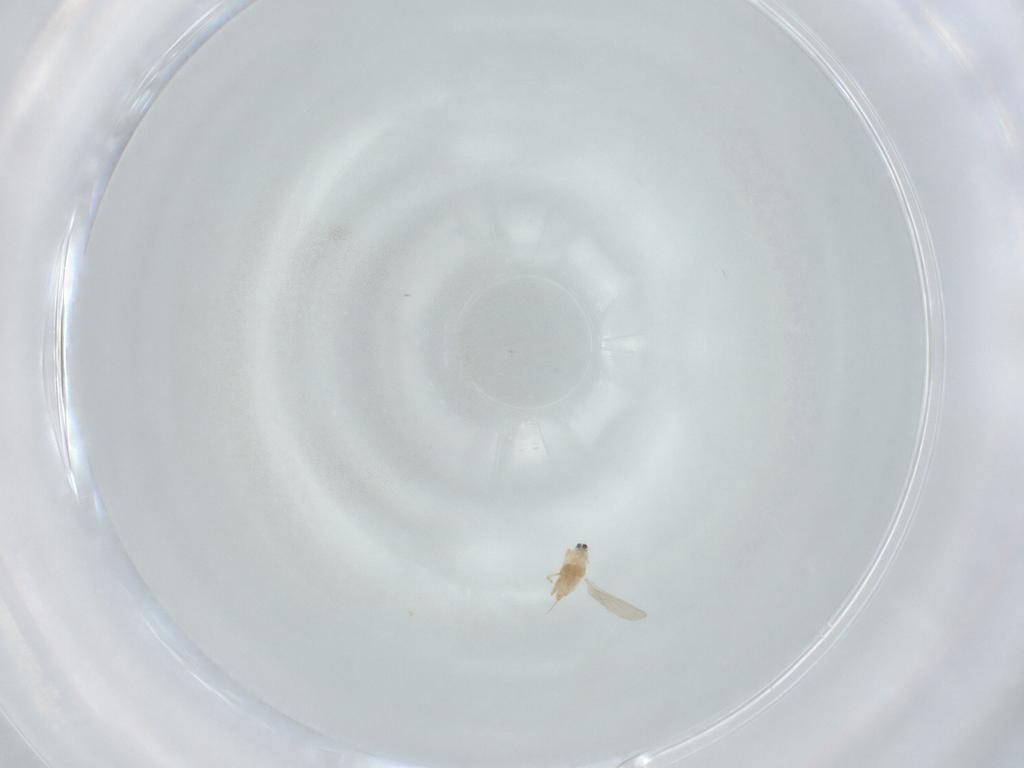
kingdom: Animalia
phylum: Arthropoda
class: Insecta
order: Hemiptera
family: Diaspididae
